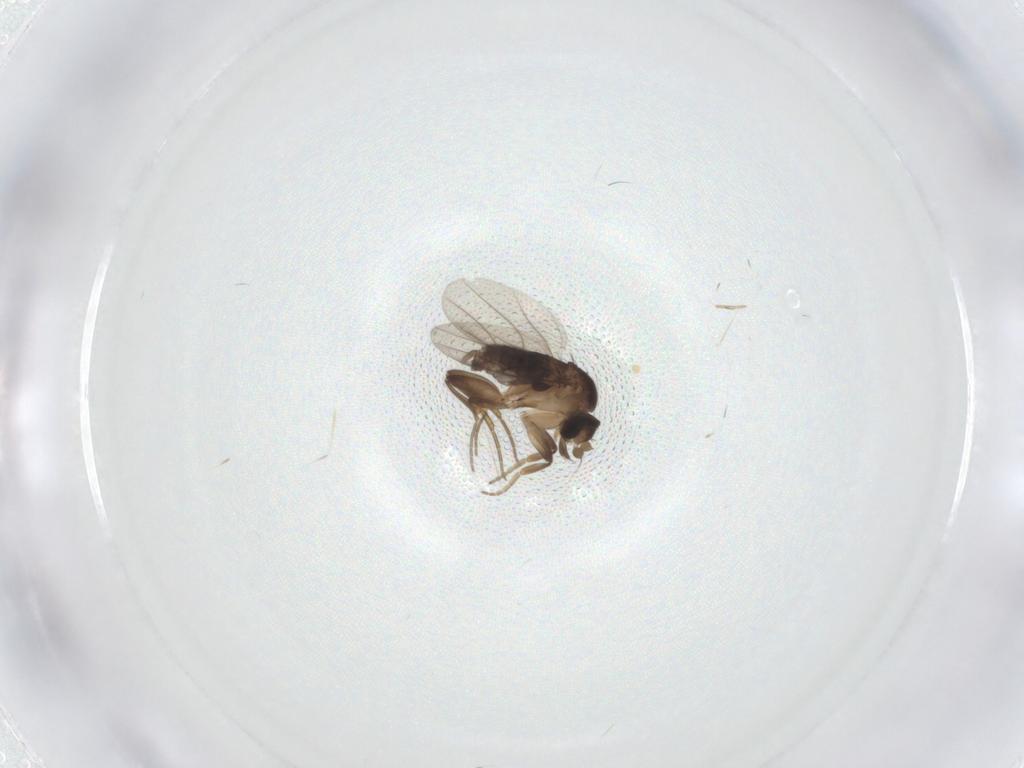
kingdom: Animalia
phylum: Arthropoda
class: Insecta
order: Diptera
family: Phoridae
